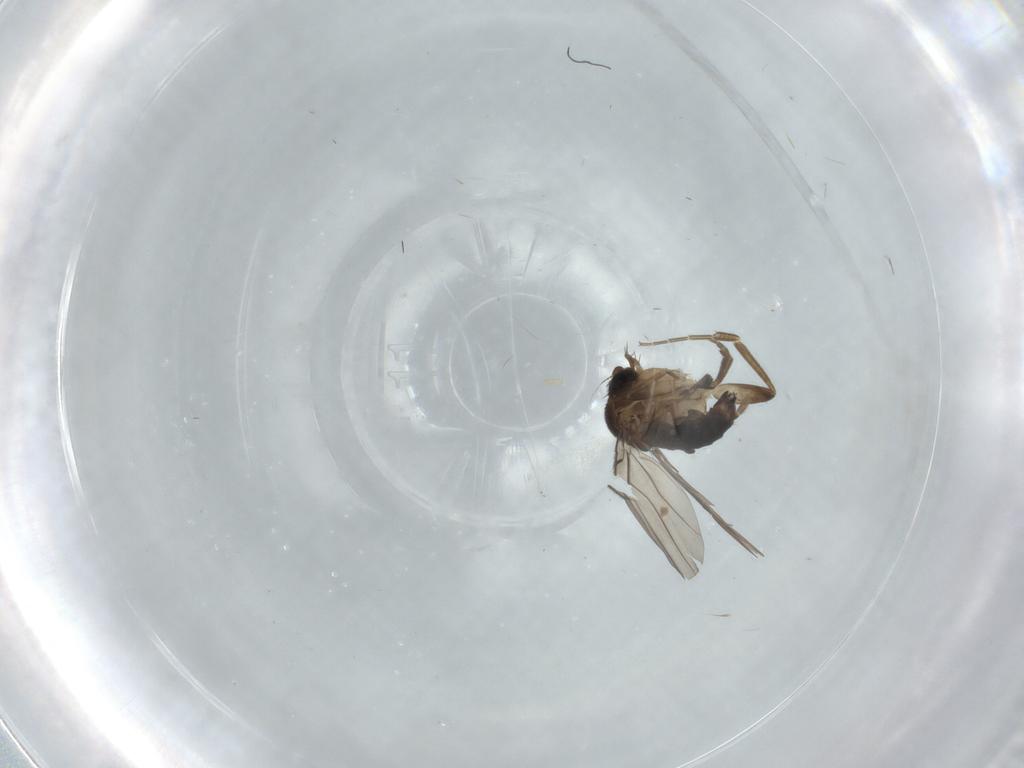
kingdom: Animalia
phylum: Arthropoda
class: Insecta
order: Diptera
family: Cecidomyiidae
